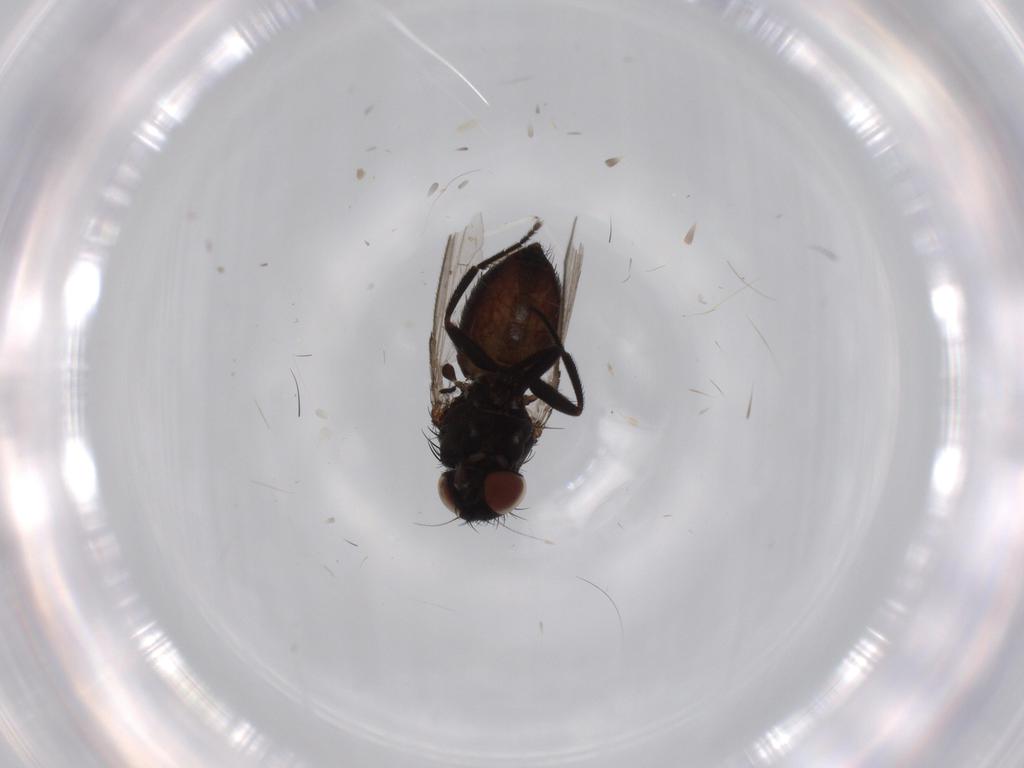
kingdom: Animalia
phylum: Arthropoda
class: Insecta
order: Diptera
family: Milichiidae
